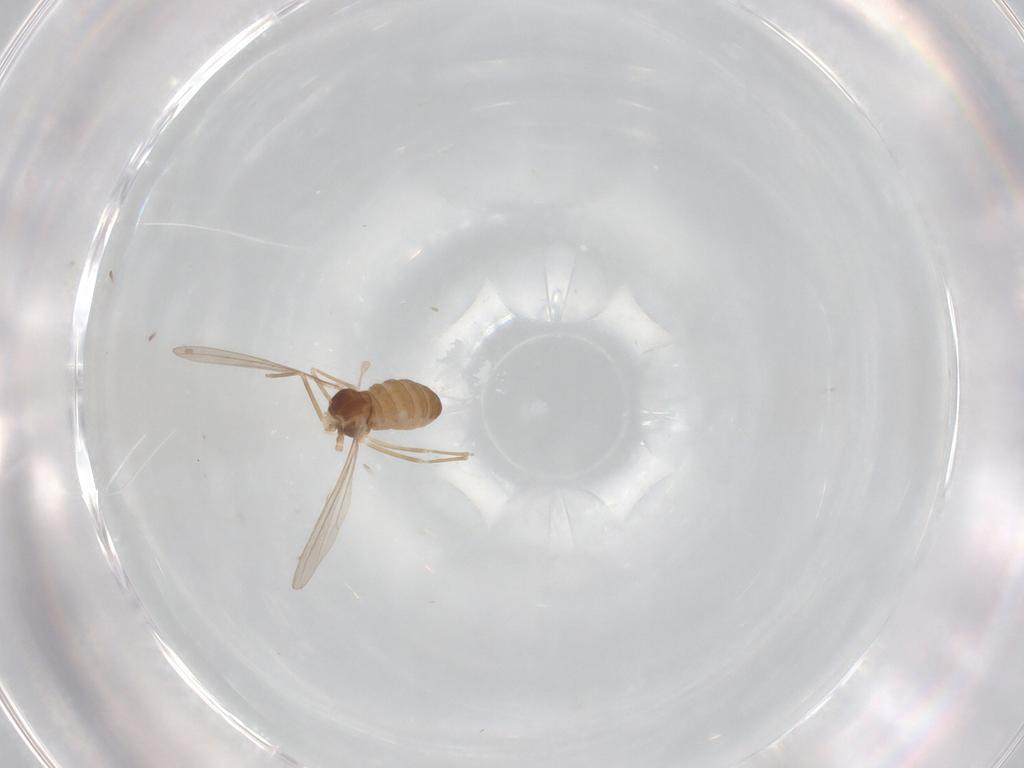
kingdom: Animalia
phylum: Arthropoda
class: Insecta
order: Diptera
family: Cecidomyiidae
